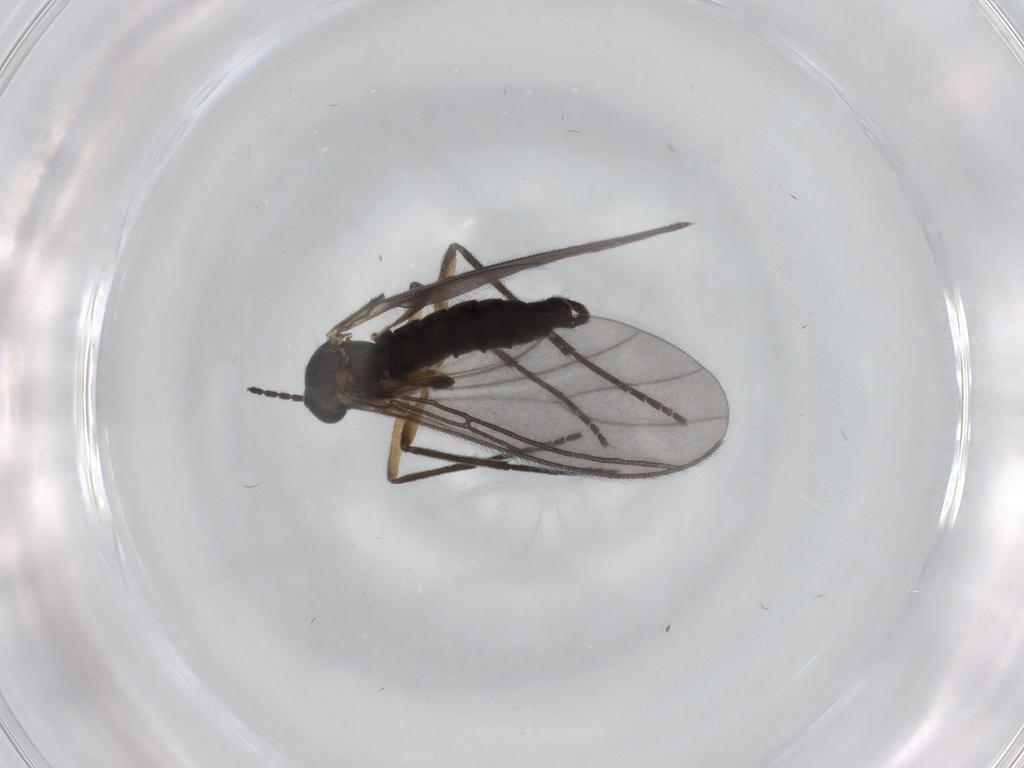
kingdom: Animalia
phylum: Arthropoda
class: Insecta
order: Diptera
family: Sciaridae
